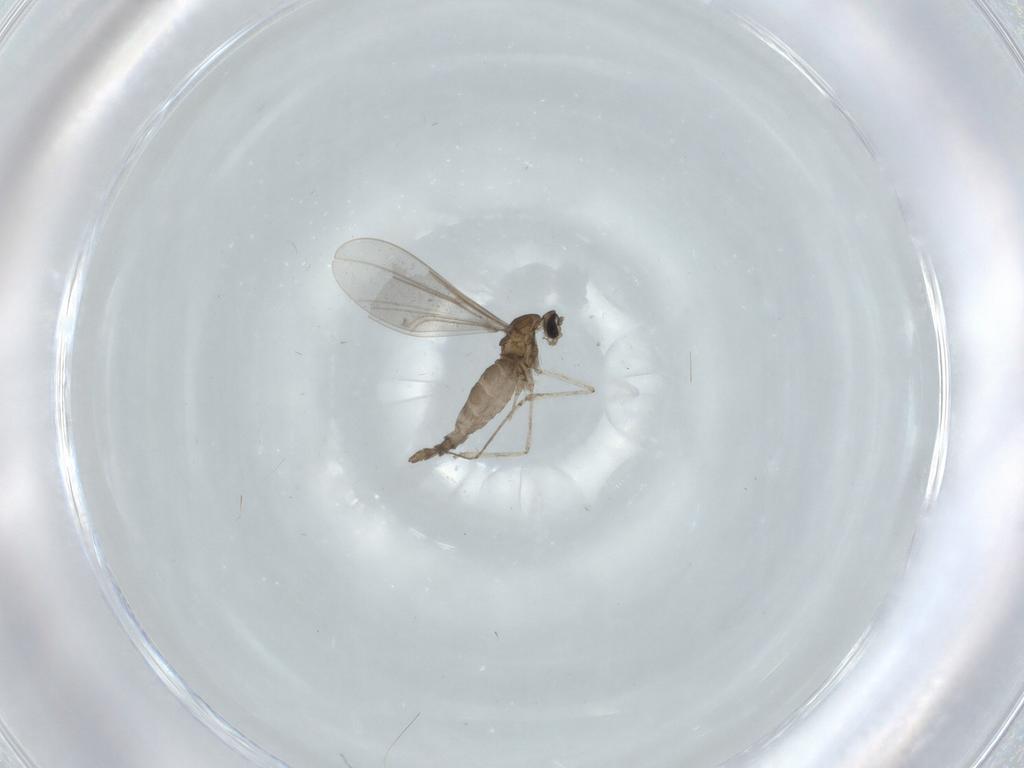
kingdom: Animalia
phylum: Arthropoda
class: Insecta
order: Diptera
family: Cecidomyiidae
